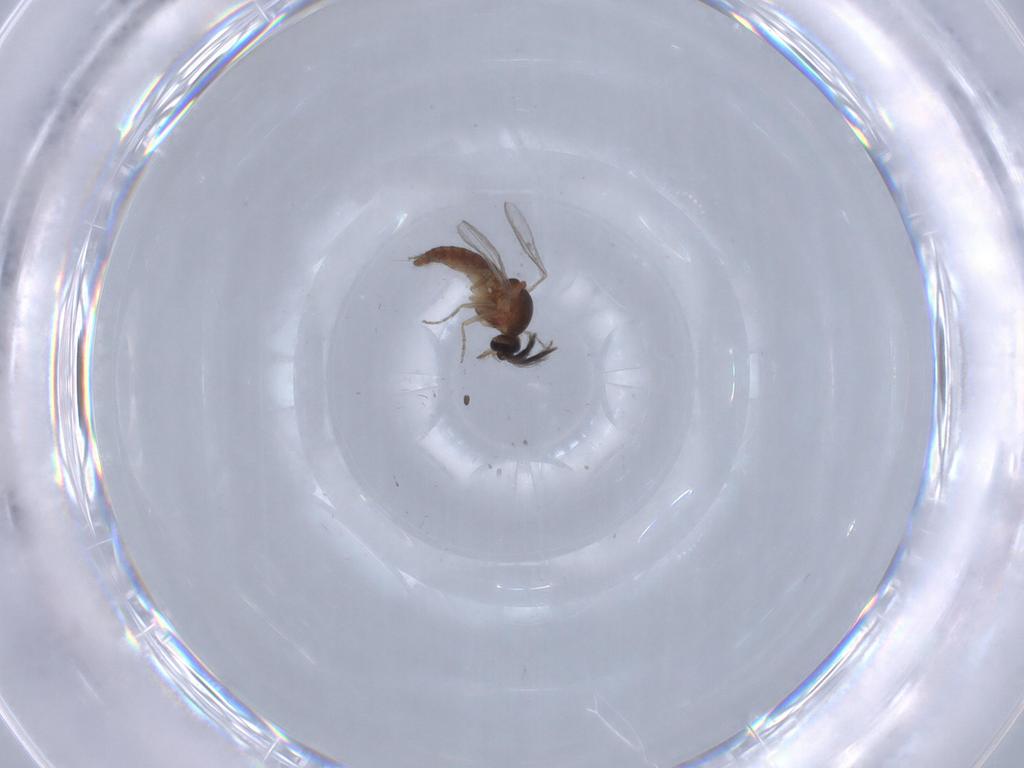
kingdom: Animalia
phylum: Arthropoda
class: Insecta
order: Diptera
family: Ceratopogonidae
